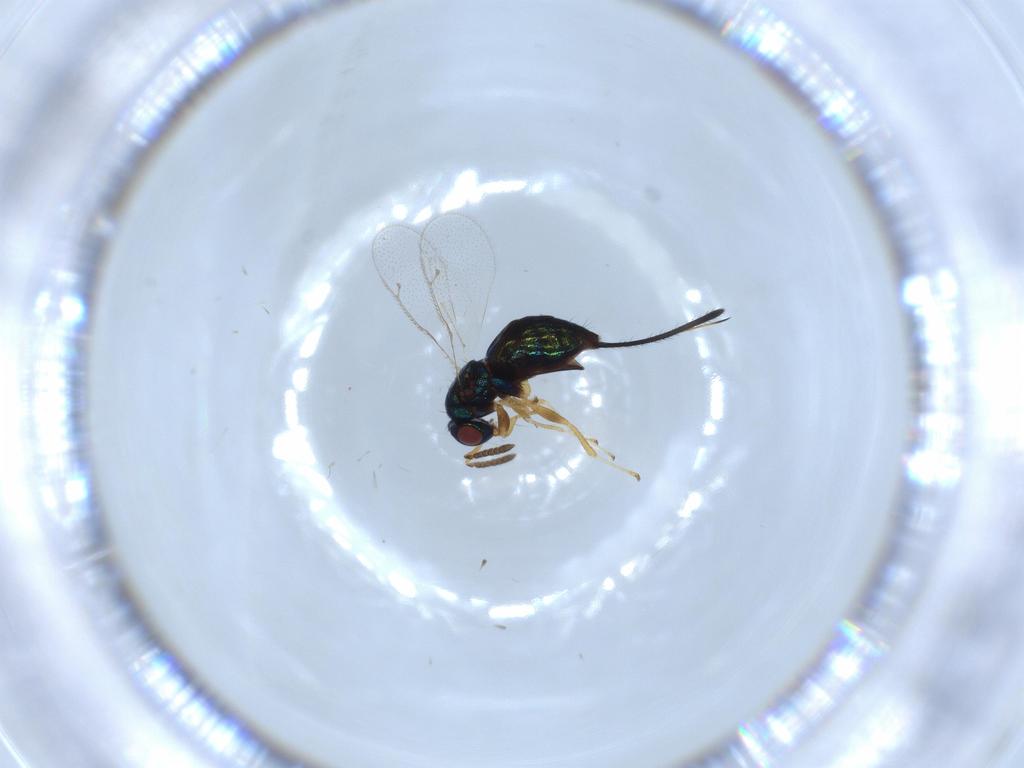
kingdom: Animalia
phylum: Arthropoda
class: Insecta
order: Hymenoptera
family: Torymidae
